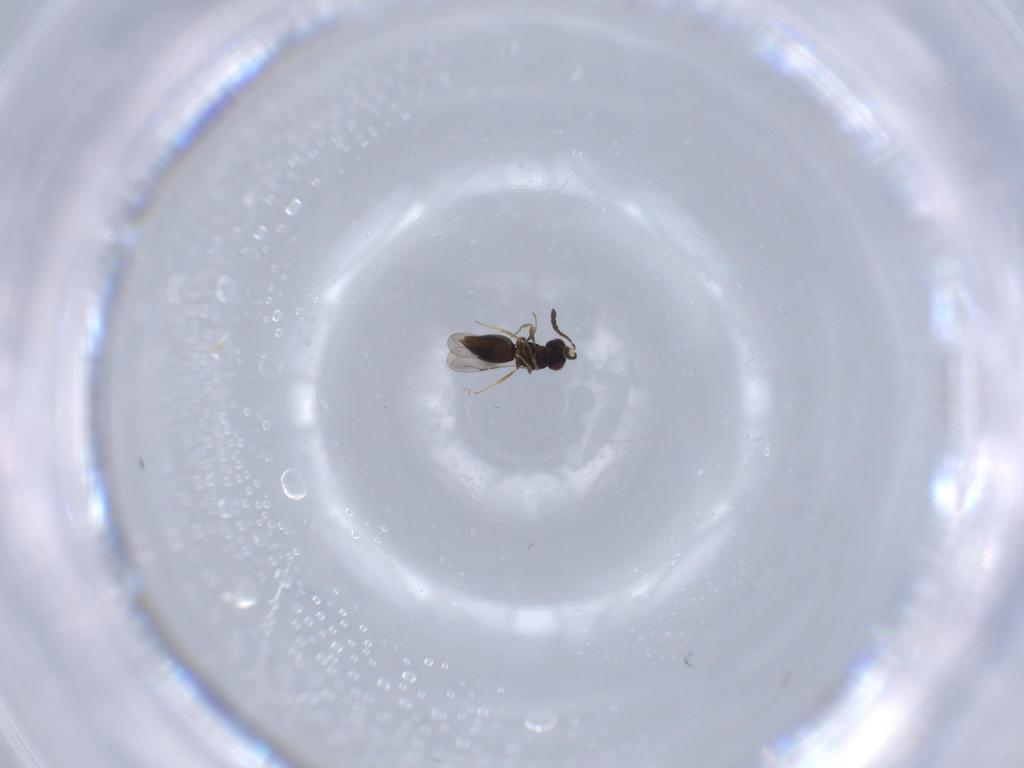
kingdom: Animalia
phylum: Arthropoda
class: Insecta
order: Hymenoptera
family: Ceraphronidae
